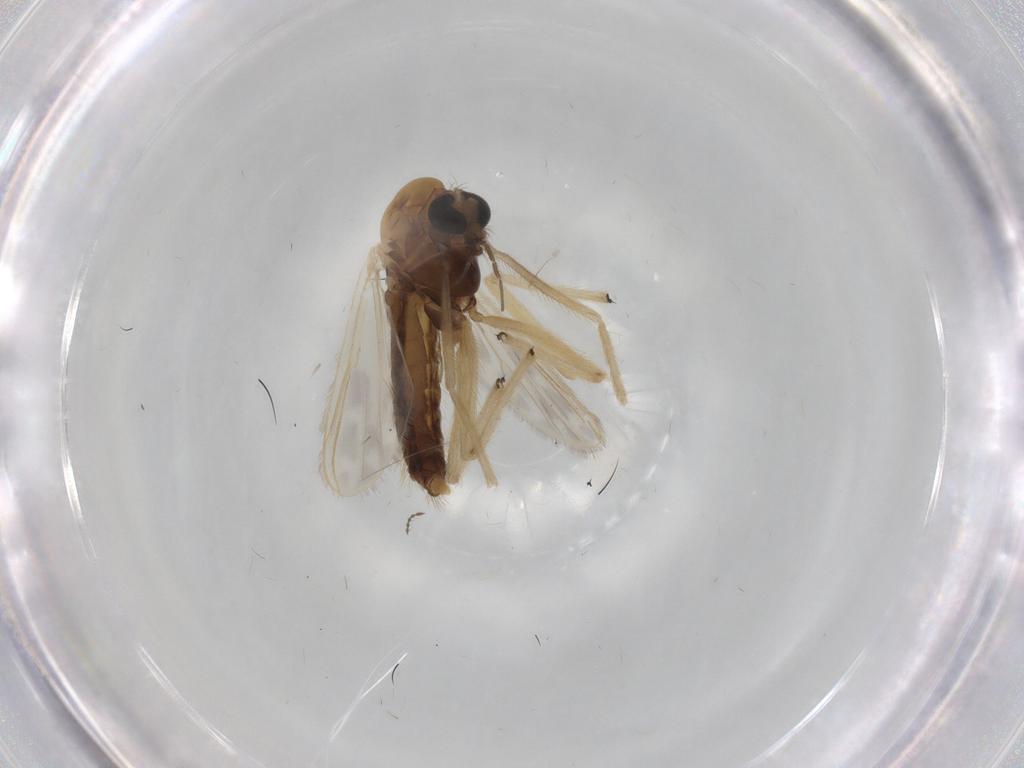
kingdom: Animalia
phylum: Arthropoda
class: Insecta
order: Diptera
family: Chironomidae
